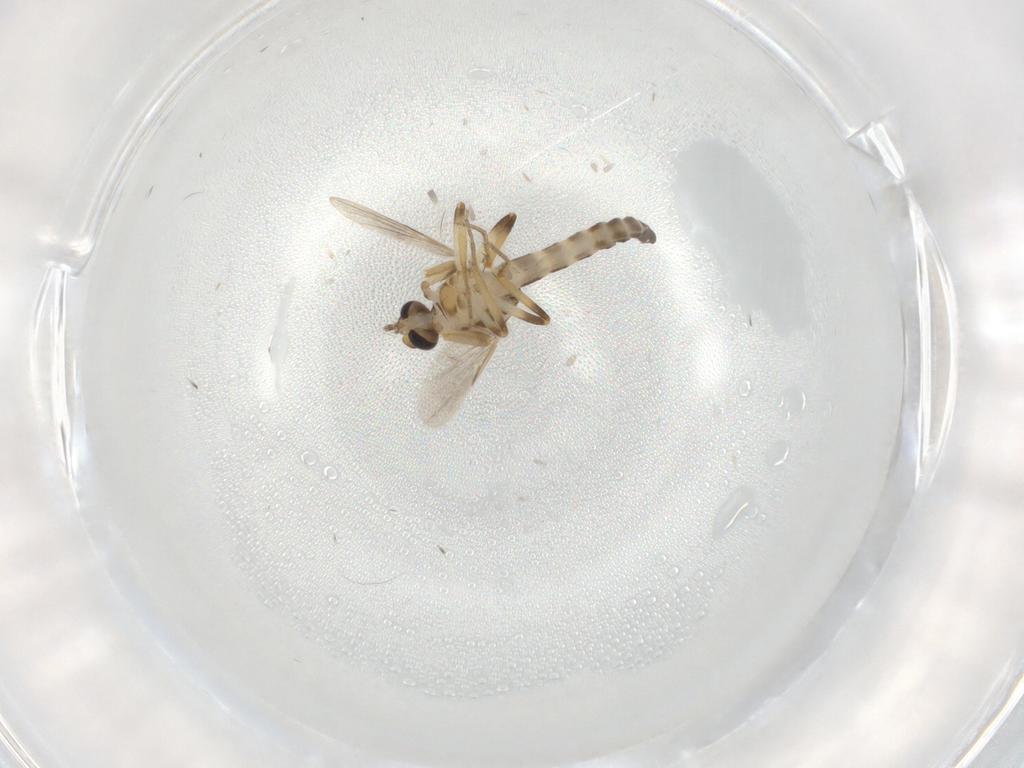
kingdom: Animalia
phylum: Arthropoda
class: Insecta
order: Diptera
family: Ceratopogonidae
